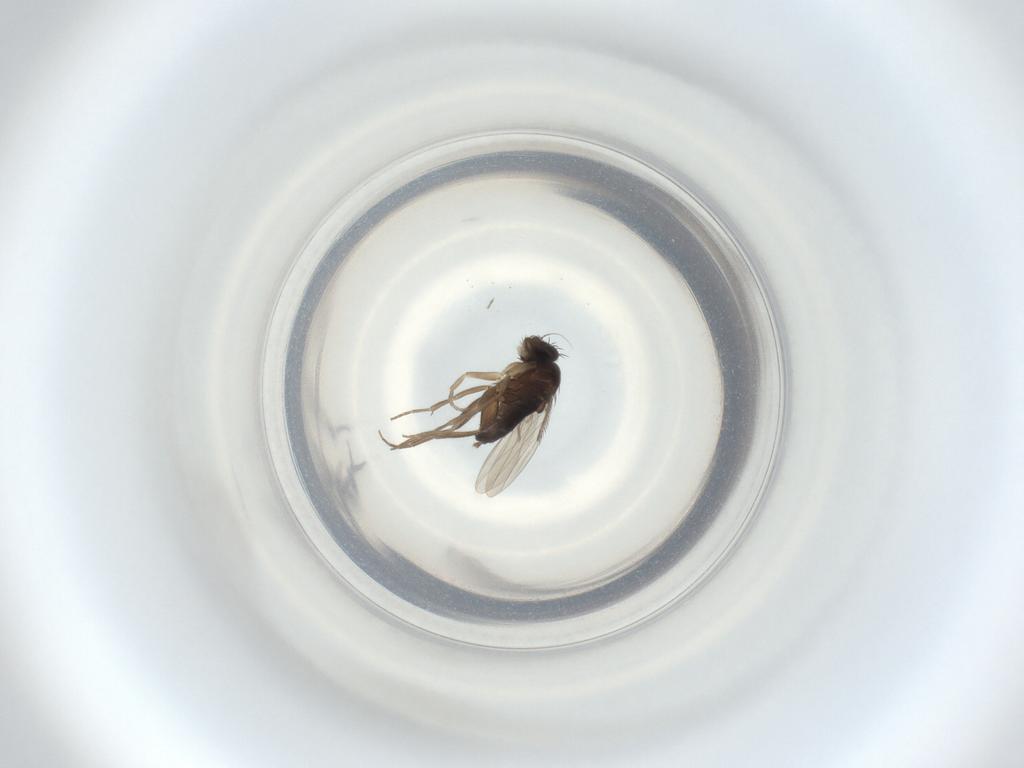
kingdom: Animalia
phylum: Arthropoda
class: Insecta
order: Diptera
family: Phoridae
